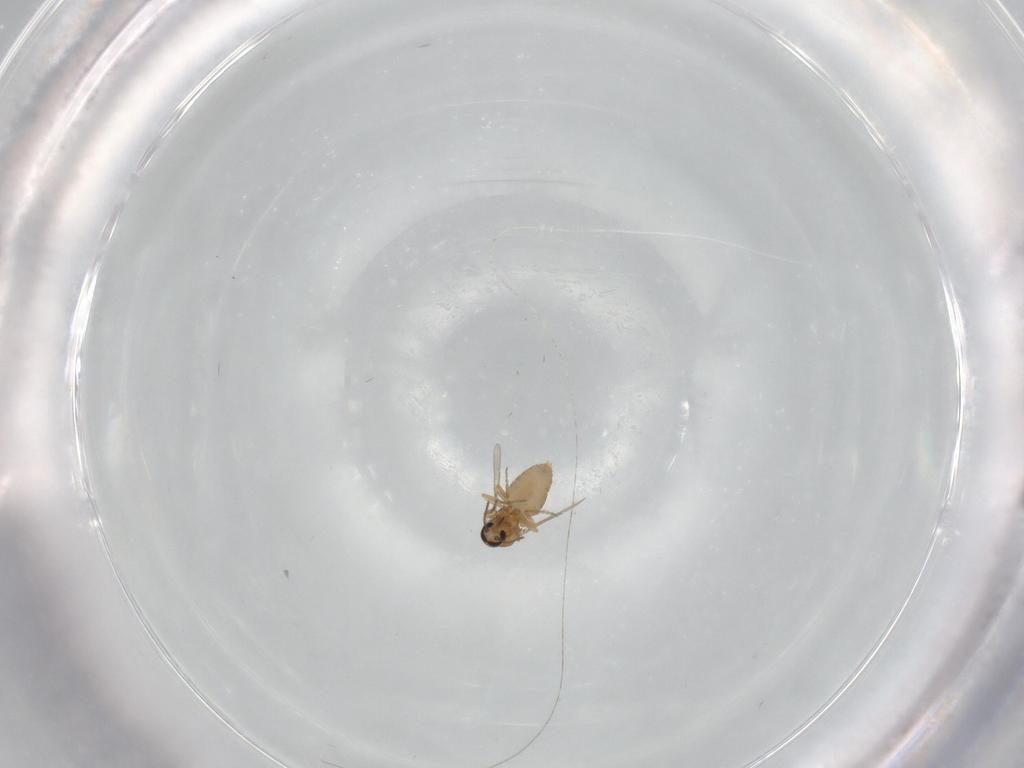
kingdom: Animalia
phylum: Arthropoda
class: Insecta
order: Diptera
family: Ceratopogonidae
